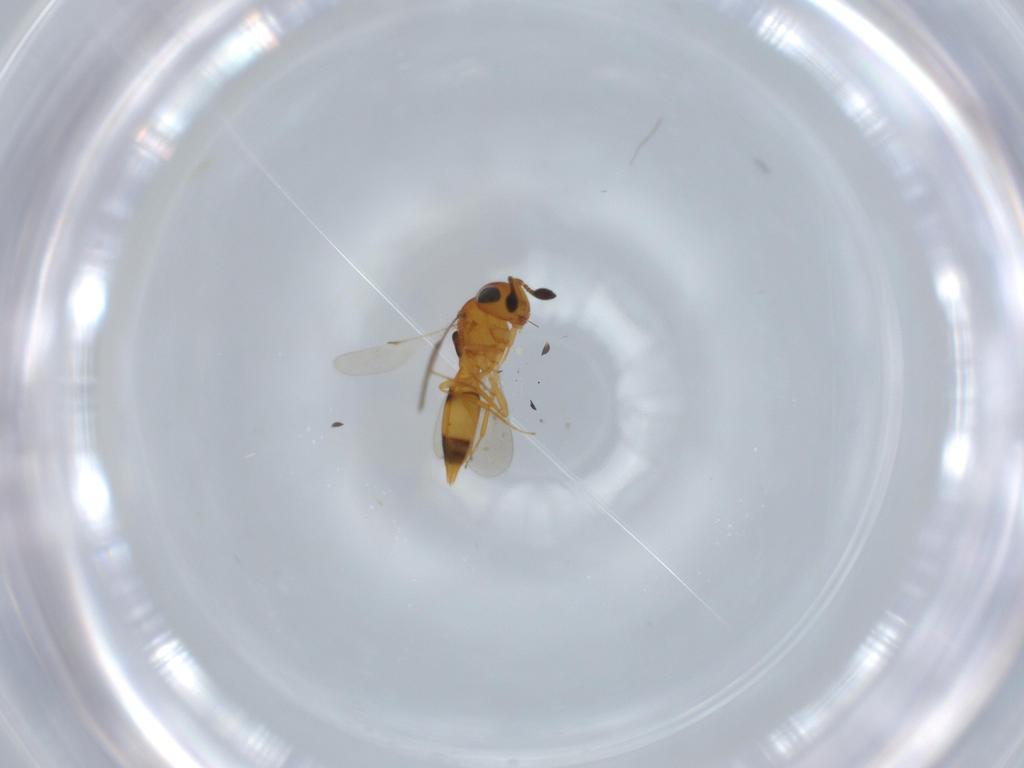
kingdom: Animalia
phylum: Arthropoda
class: Insecta
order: Hymenoptera
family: Scelionidae
